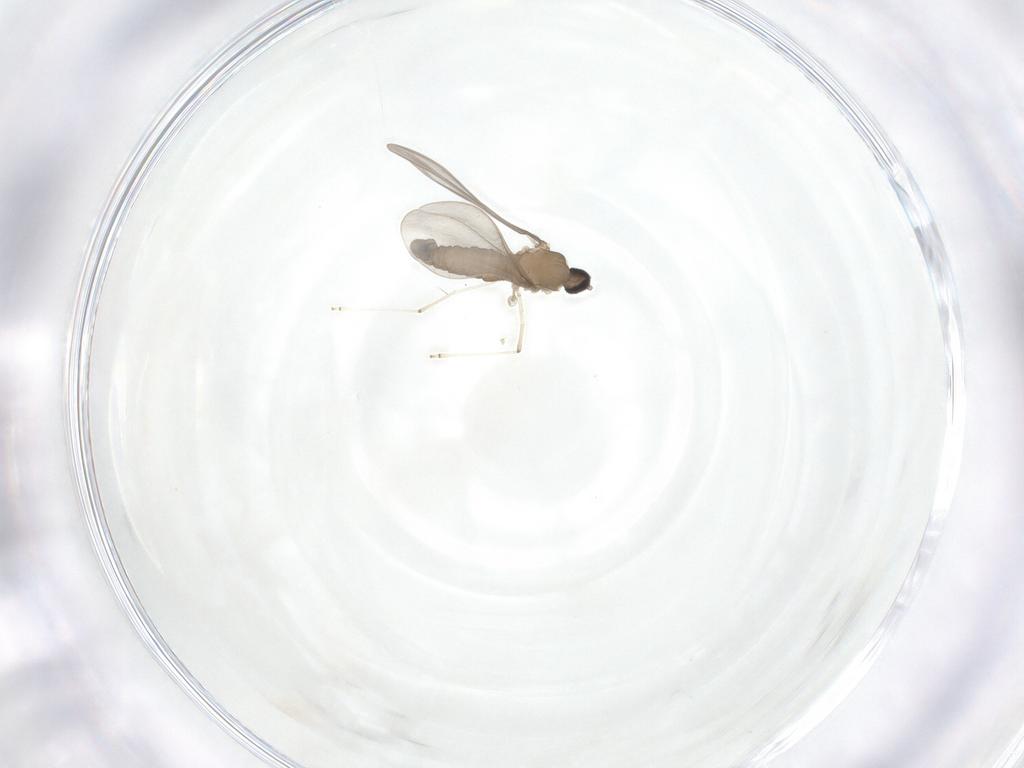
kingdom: Animalia
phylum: Arthropoda
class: Insecta
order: Diptera
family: Cecidomyiidae
